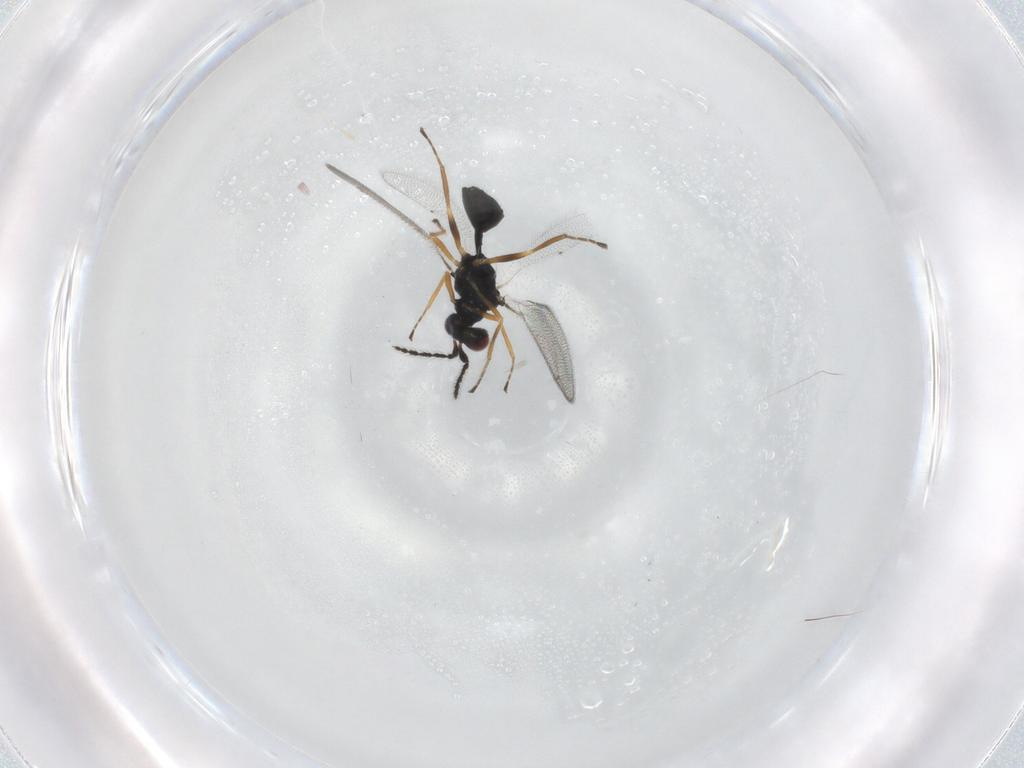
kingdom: Animalia
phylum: Arthropoda
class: Insecta
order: Hymenoptera
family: Eulophidae
